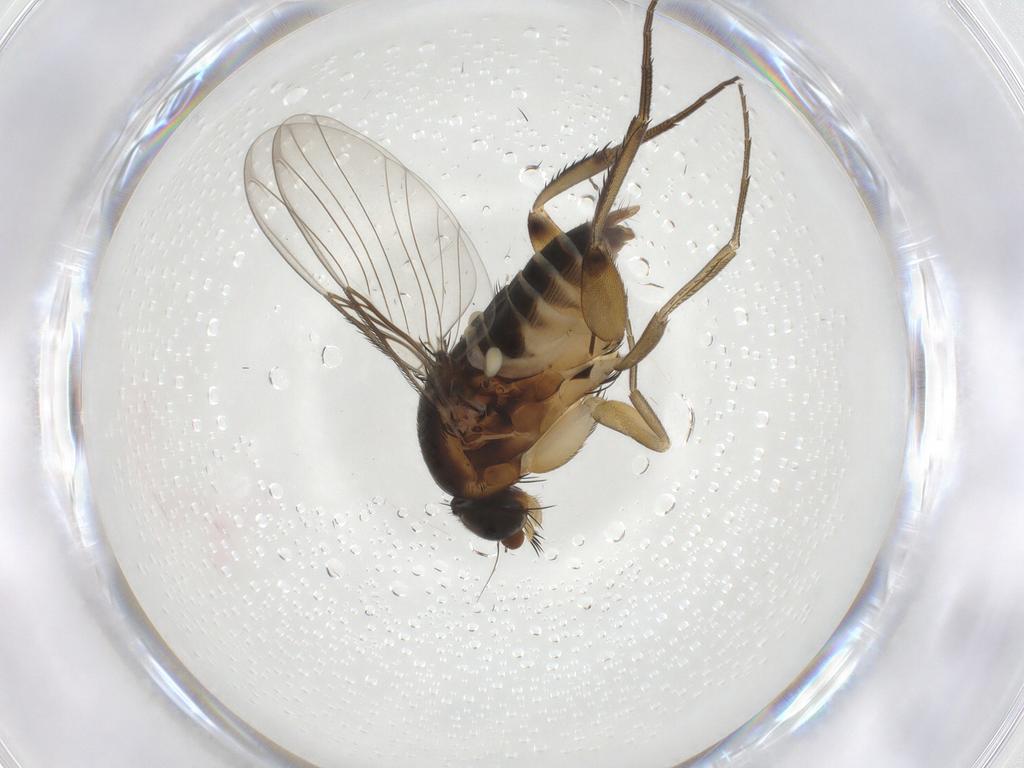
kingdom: Animalia
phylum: Arthropoda
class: Insecta
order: Diptera
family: Phoridae
